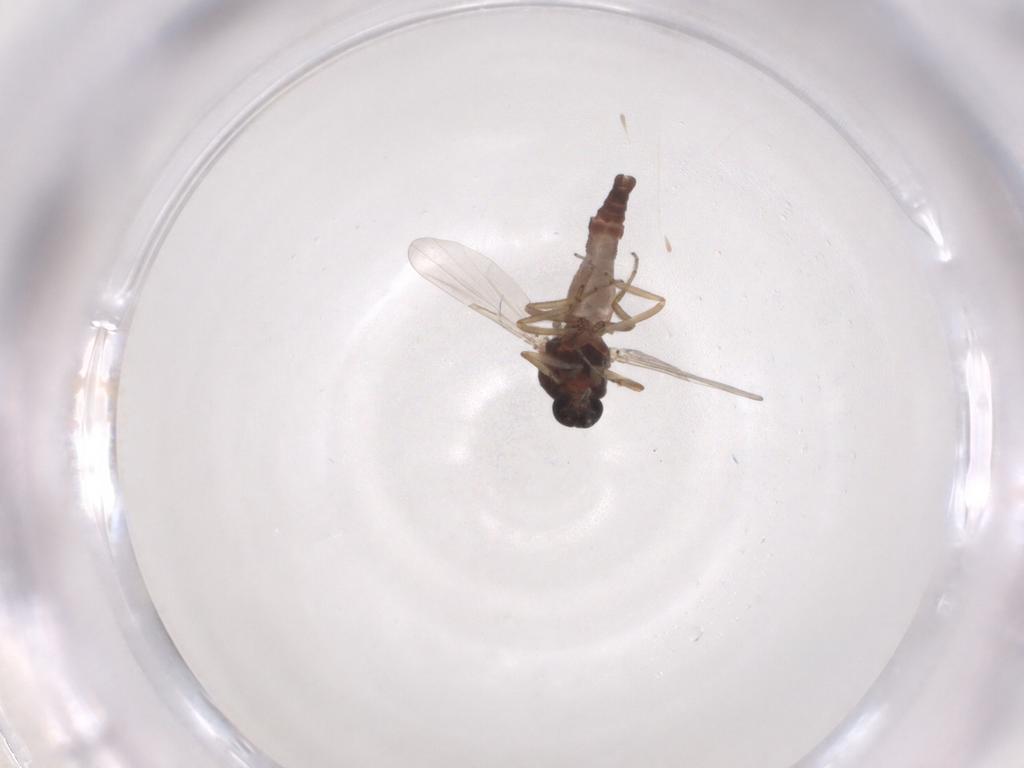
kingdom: Animalia
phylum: Arthropoda
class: Insecta
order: Diptera
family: Ceratopogonidae
